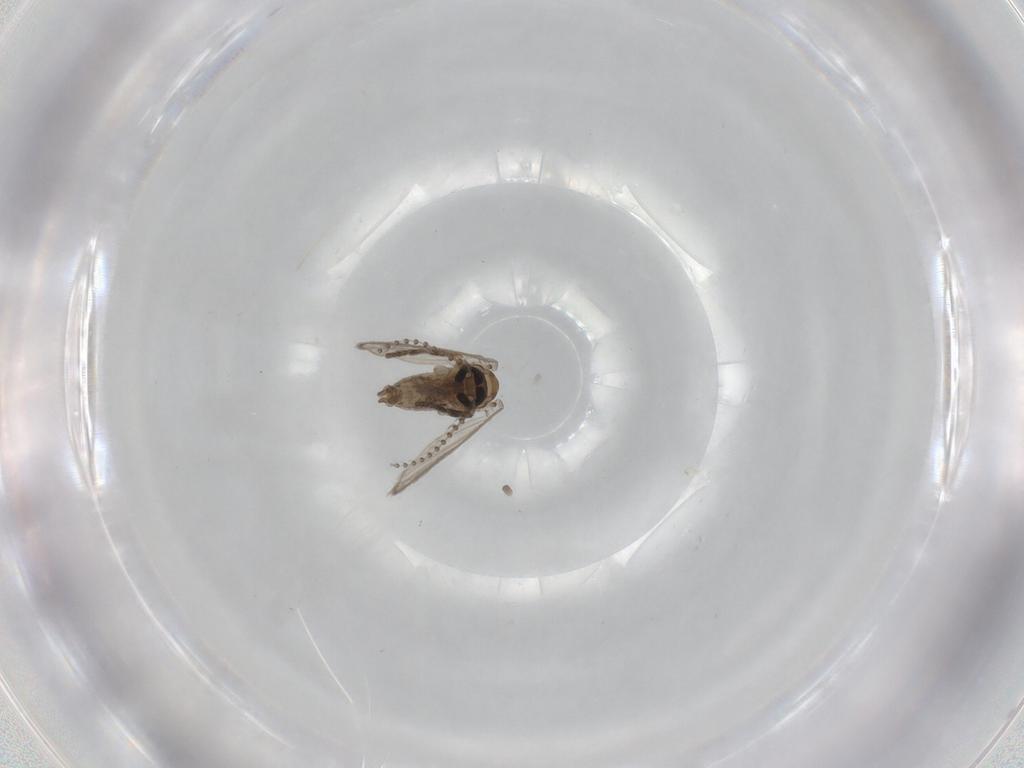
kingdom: Animalia
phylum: Arthropoda
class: Insecta
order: Diptera
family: Psychodidae
